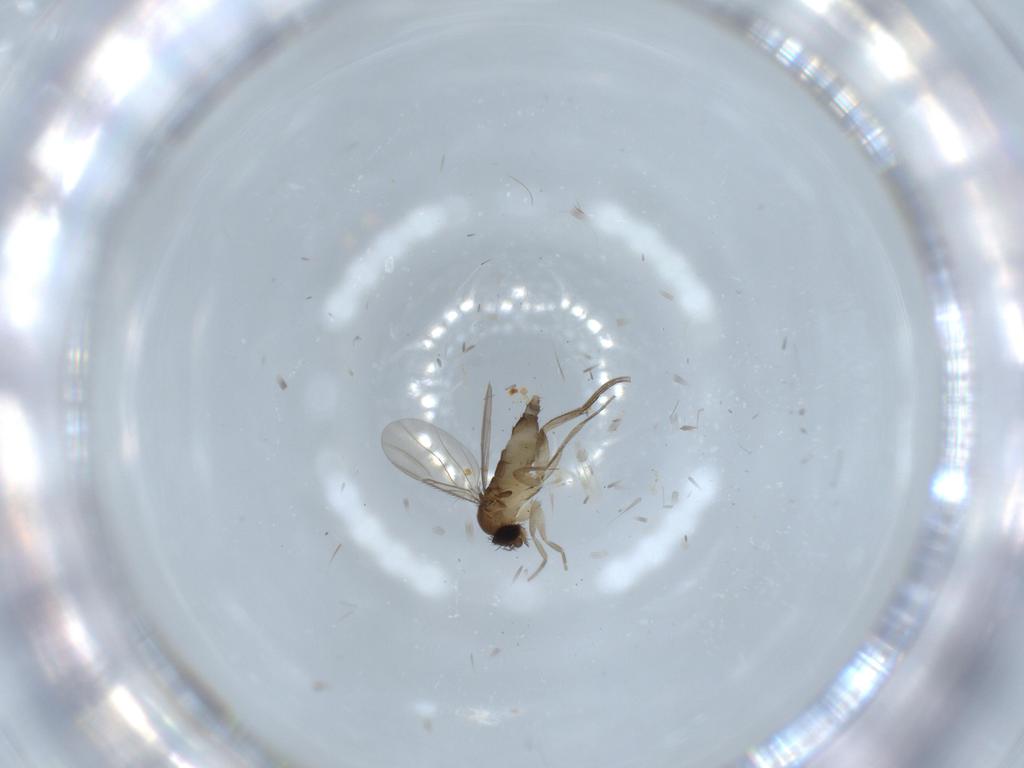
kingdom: Animalia
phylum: Arthropoda
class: Insecta
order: Diptera
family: Phoridae
